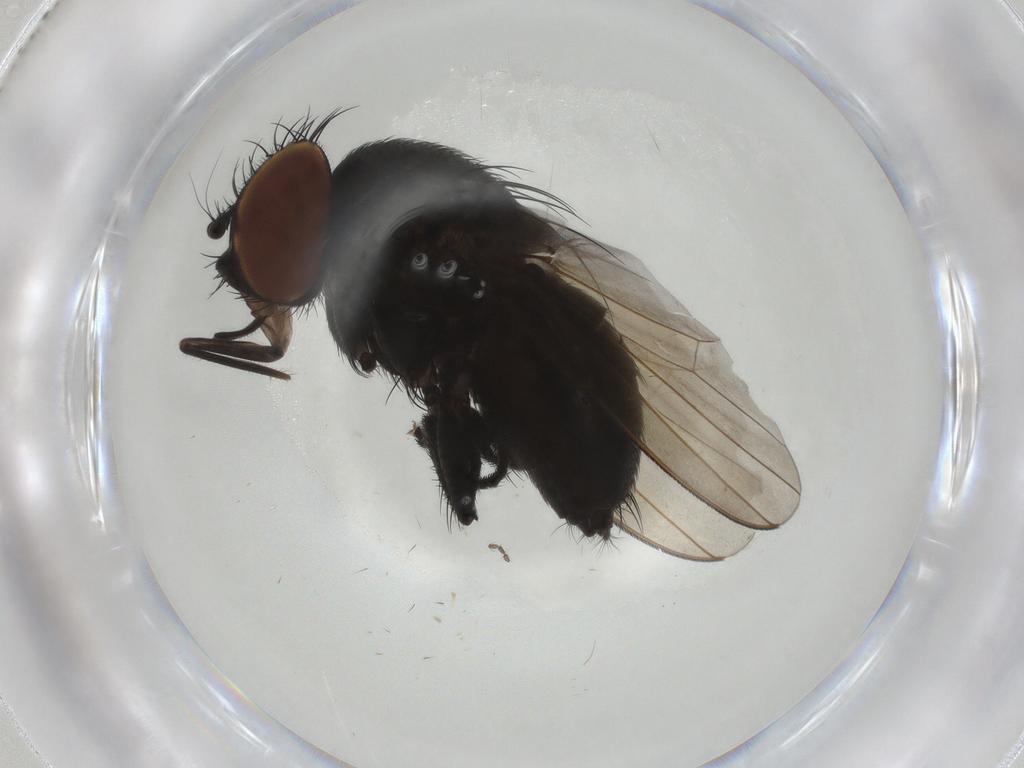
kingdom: Animalia
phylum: Arthropoda
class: Insecta
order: Diptera
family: Milichiidae
